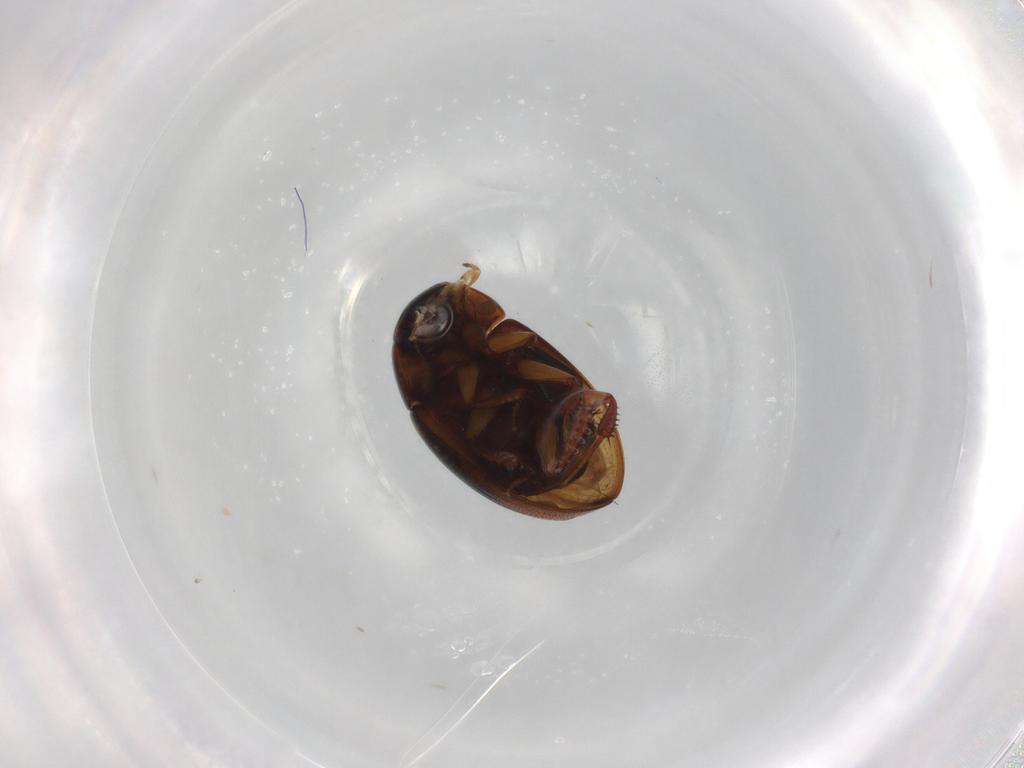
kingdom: Animalia
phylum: Arthropoda
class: Insecta
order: Coleoptera
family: Hydrophilidae
